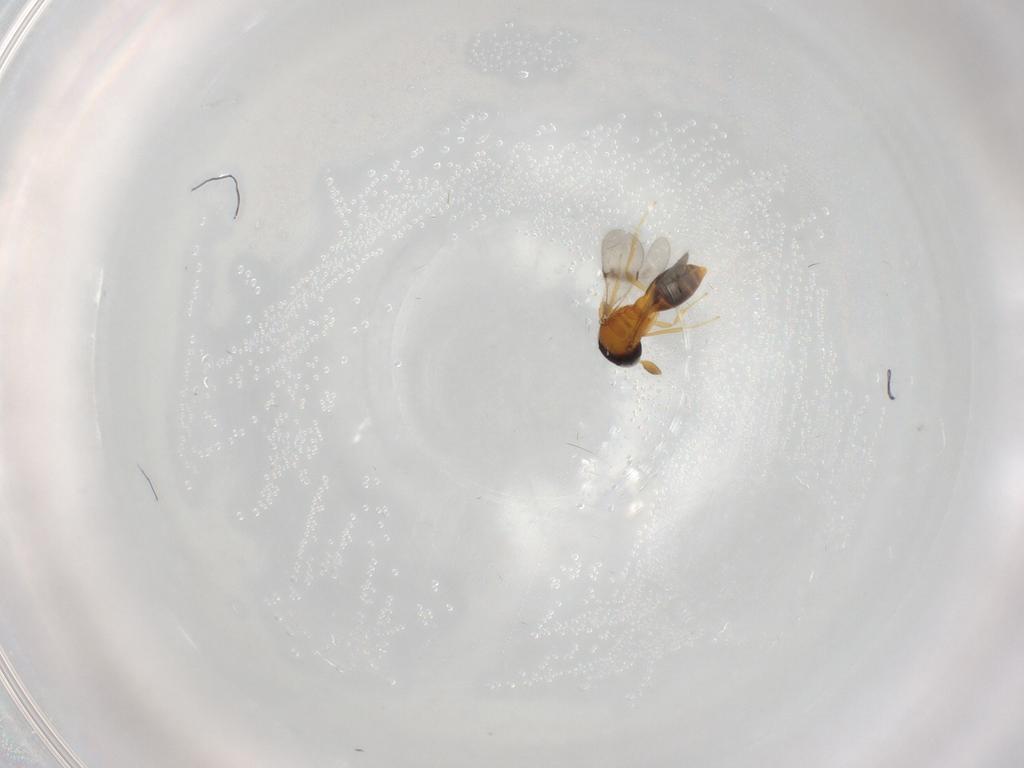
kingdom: Animalia
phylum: Arthropoda
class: Insecta
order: Hymenoptera
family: Scelionidae
